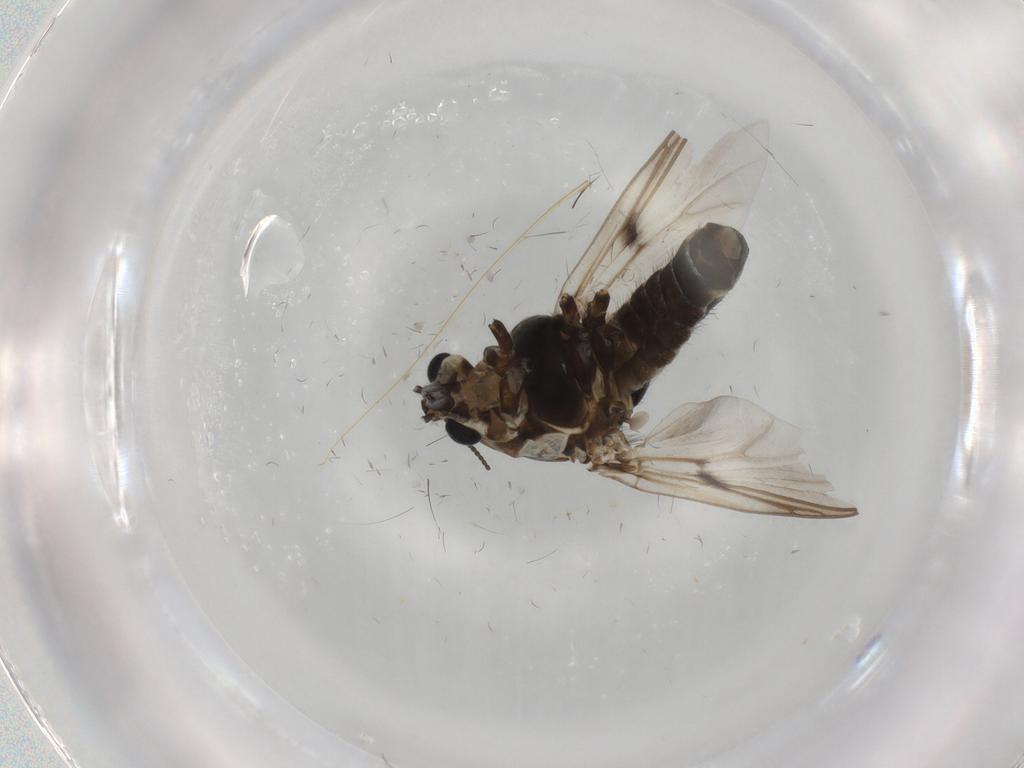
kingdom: Animalia
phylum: Arthropoda
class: Insecta
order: Diptera
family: Chironomidae
